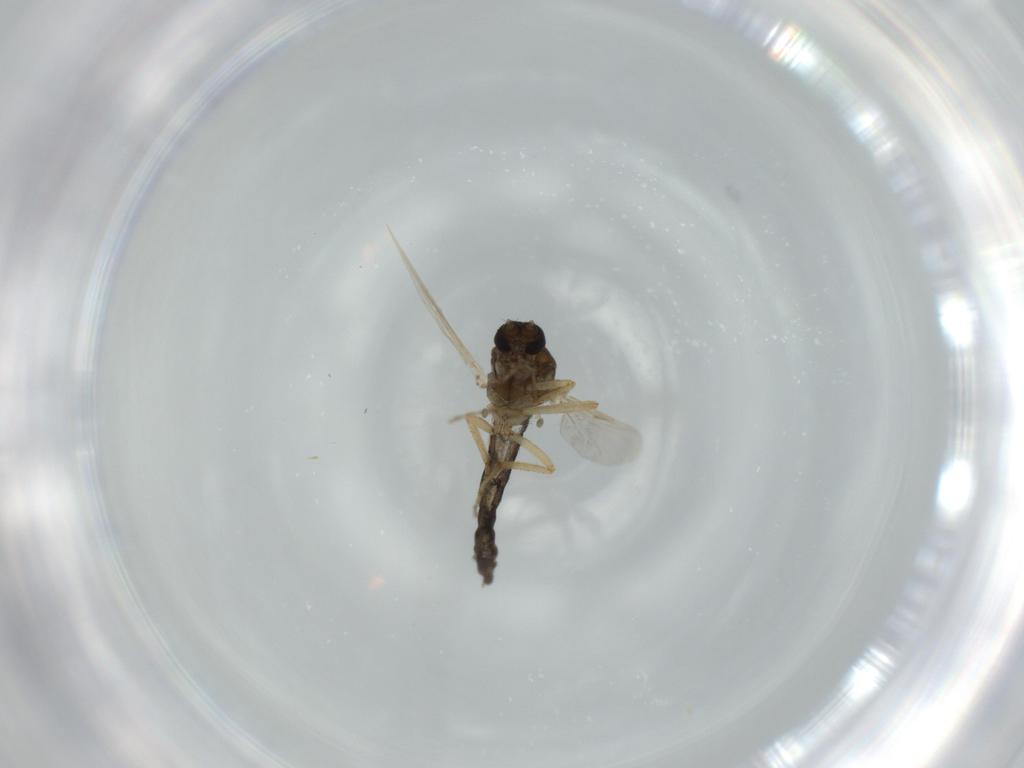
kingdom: Animalia
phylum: Arthropoda
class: Insecta
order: Diptera
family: Ceratopogonidae
